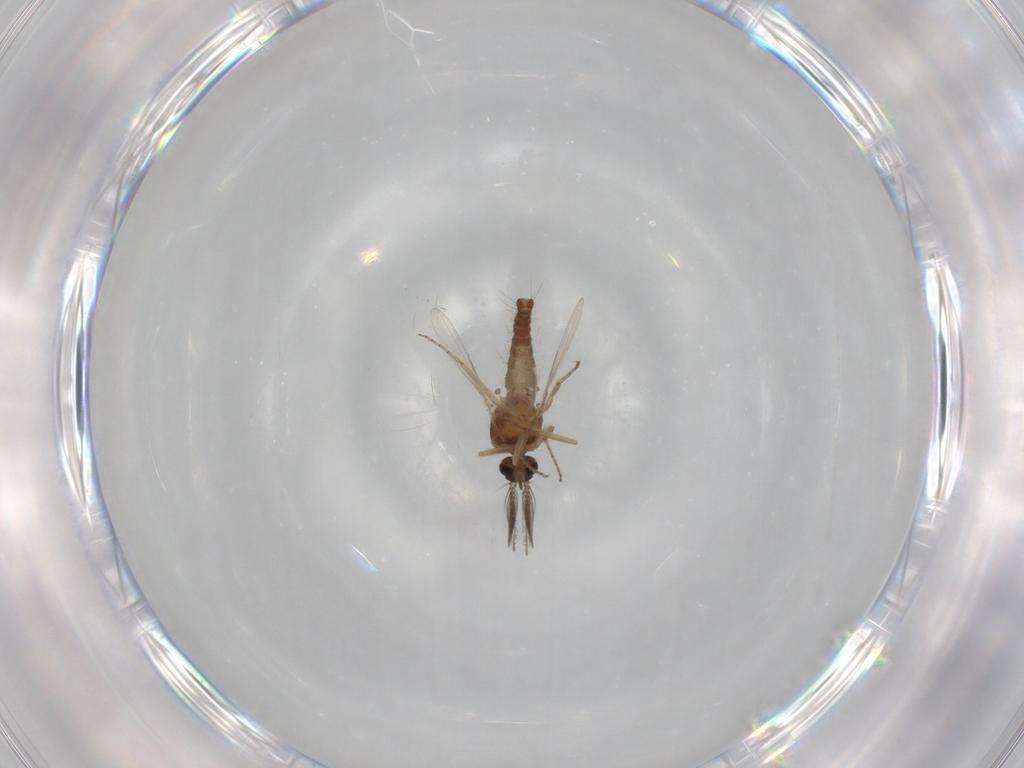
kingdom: Animalia
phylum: Arthropoda
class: Insecta
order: Diptera
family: Ceratopogonidae
